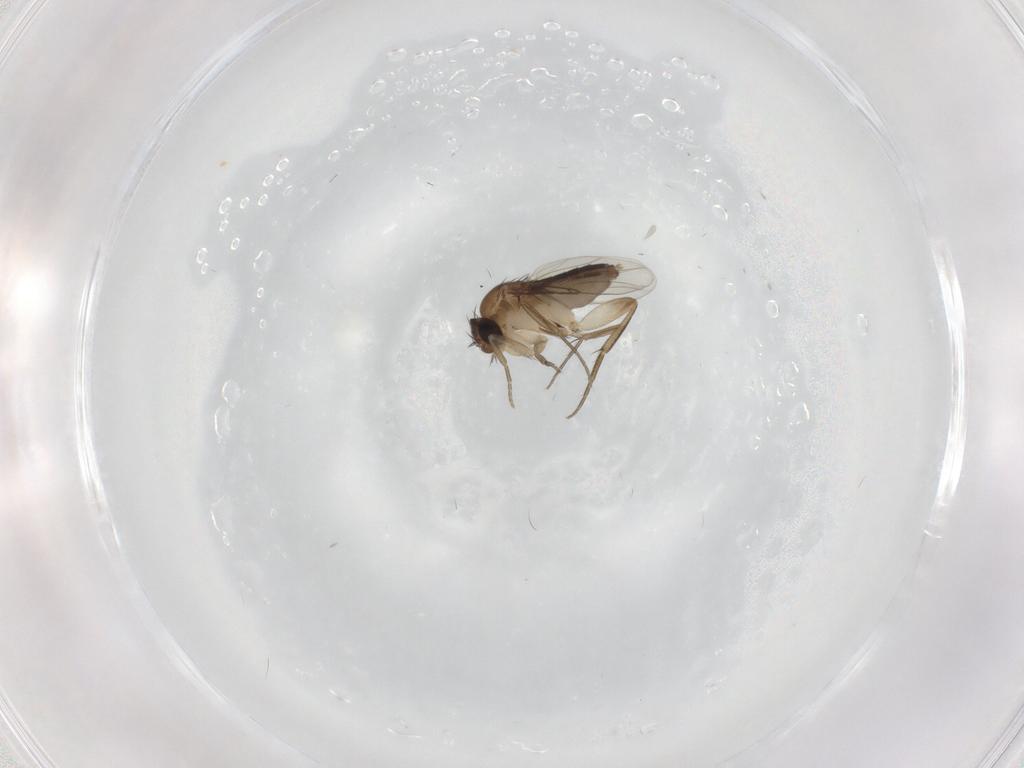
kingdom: Animalia
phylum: Arthropoda
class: Insecta
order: Diptera
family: Phoridae
